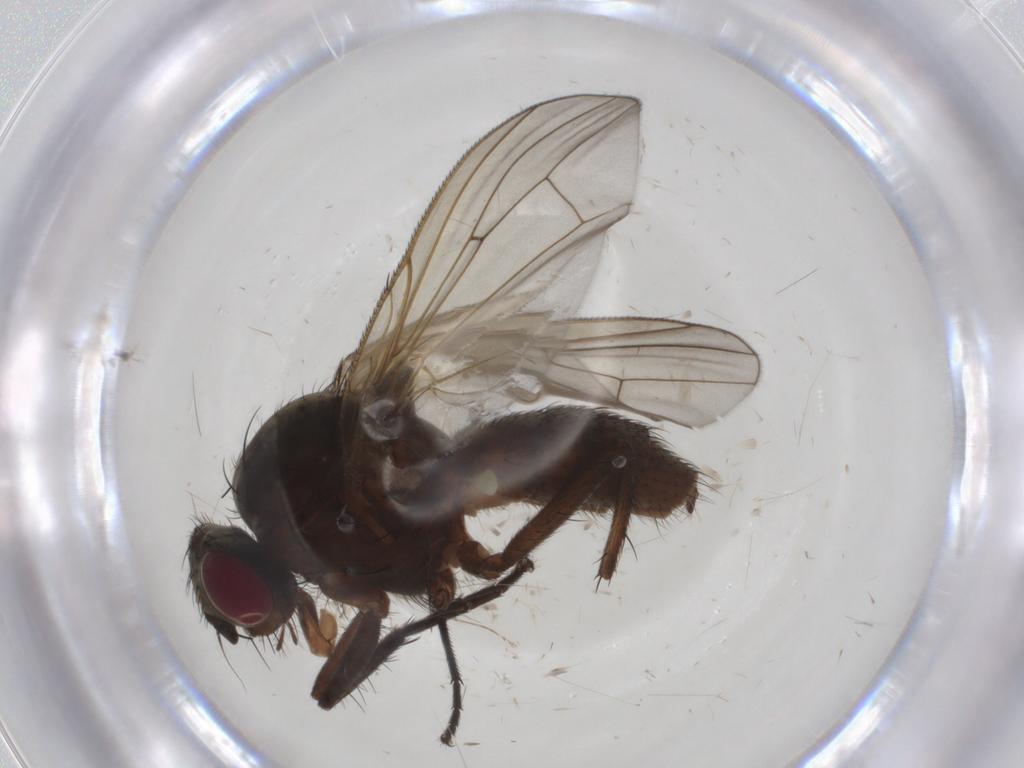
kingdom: Animalia
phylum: Arthropoda
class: Insecta
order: Diptera
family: Anthomyiidae
